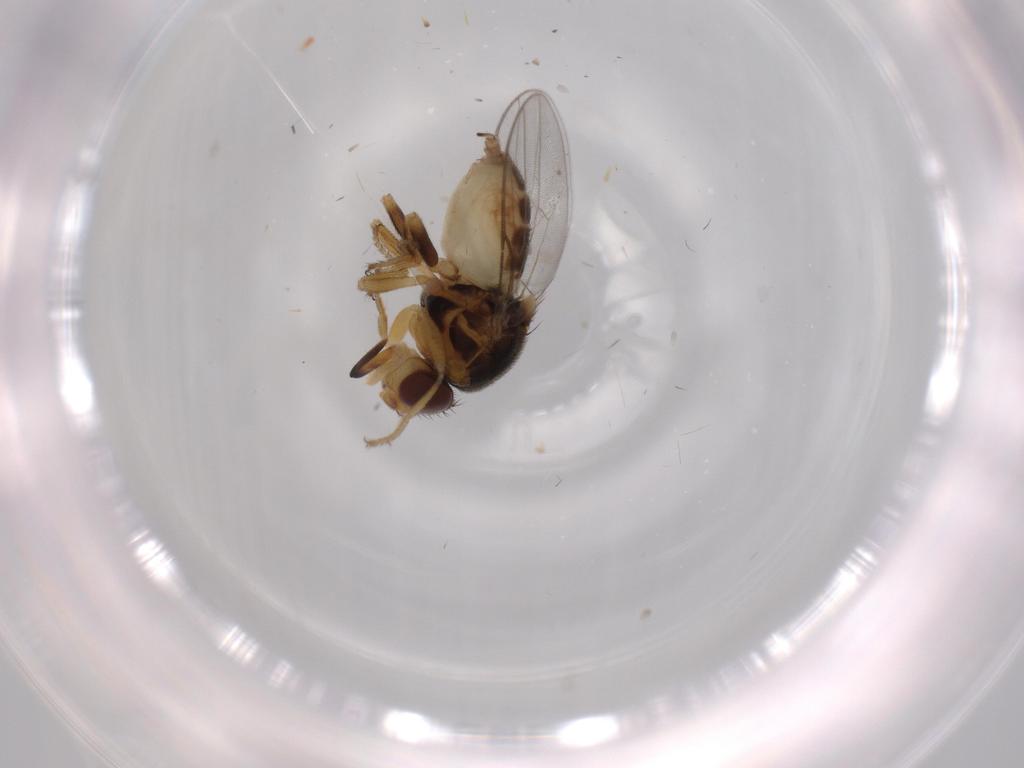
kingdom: Animalia
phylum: Arthropoda
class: Insecta
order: Diptera
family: Chloropidae
